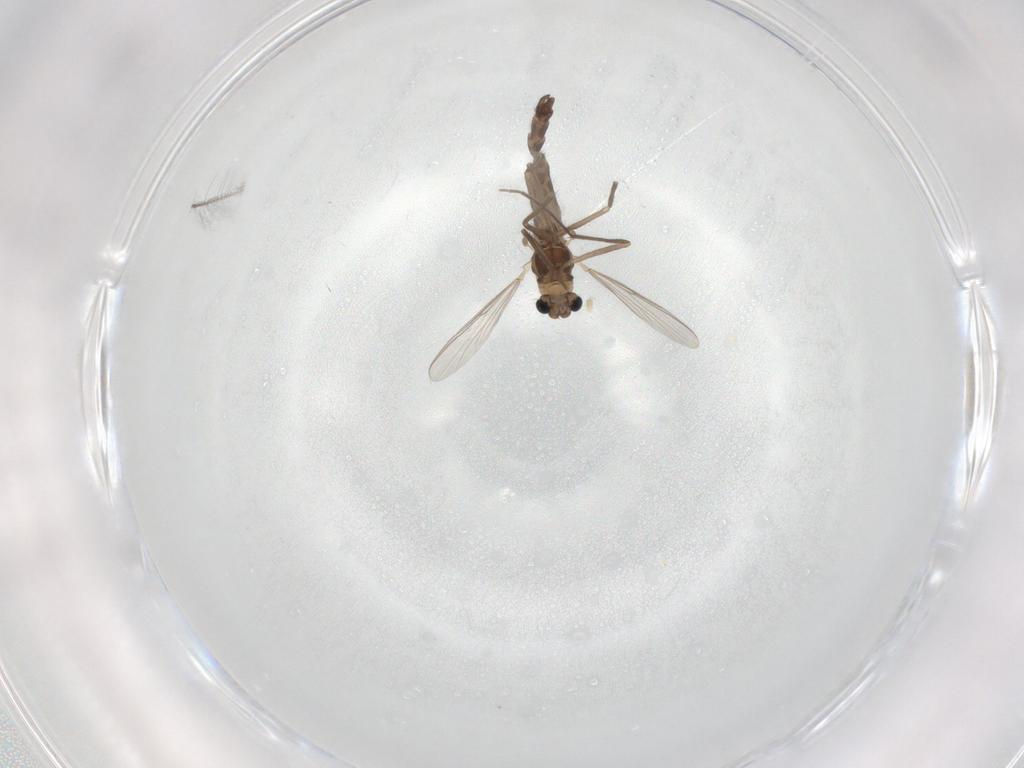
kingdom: Animalia
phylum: Arthropoda
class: Insecta
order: Diptera
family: Chironomidae
